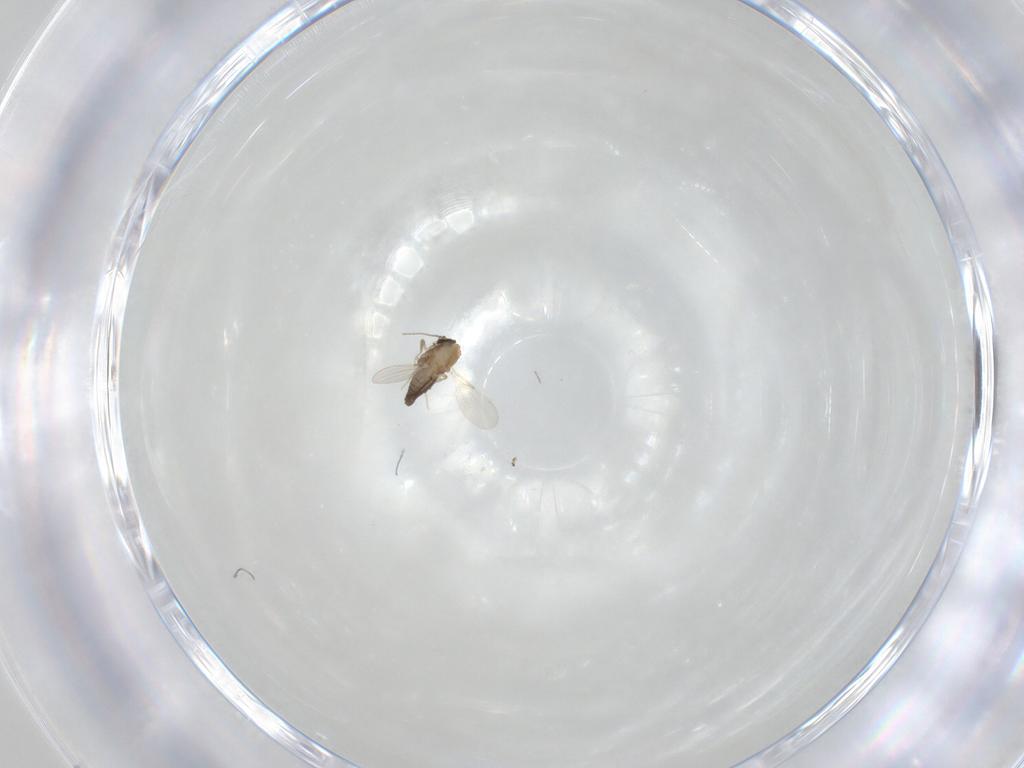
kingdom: Animalia
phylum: Arthropoda
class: Insecta
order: Diptera
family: Ceratopogonidae
